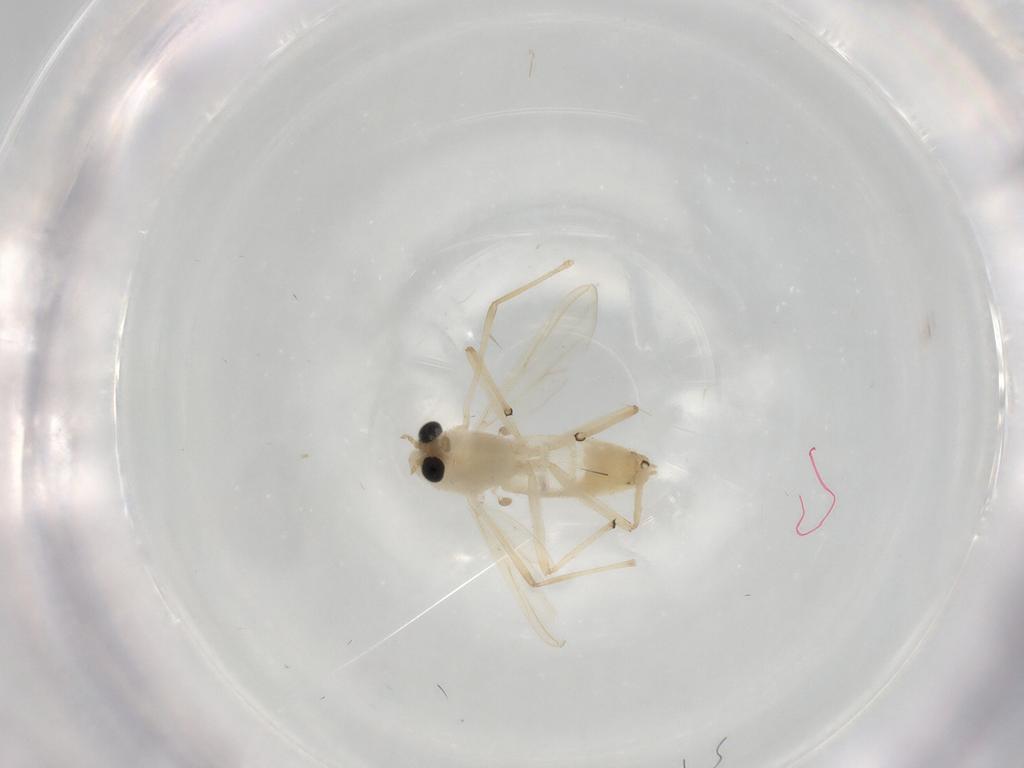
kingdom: Animalia
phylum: Arthropoda
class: Insecta
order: Diptera
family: Chironomidae
